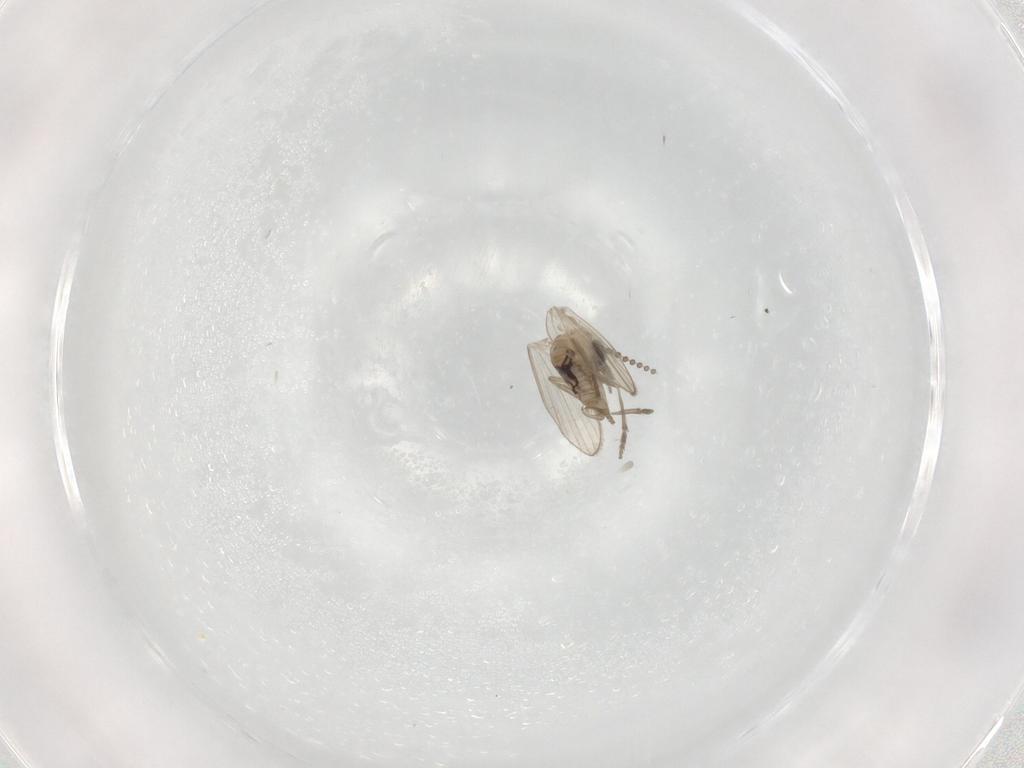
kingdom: Animalia
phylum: Arthropoda
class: Insecta
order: Diptera
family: Psychodidae
